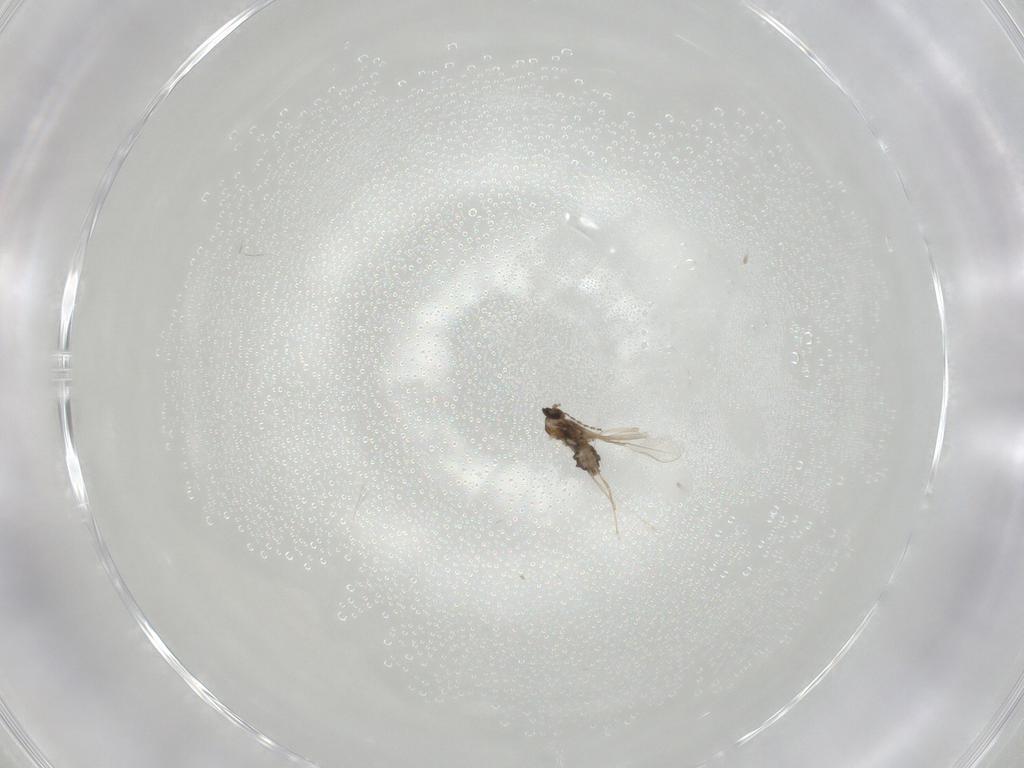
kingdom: Animalia
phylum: Arthropoda
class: Insecta
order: Diptera
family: Cecidomyiidae
